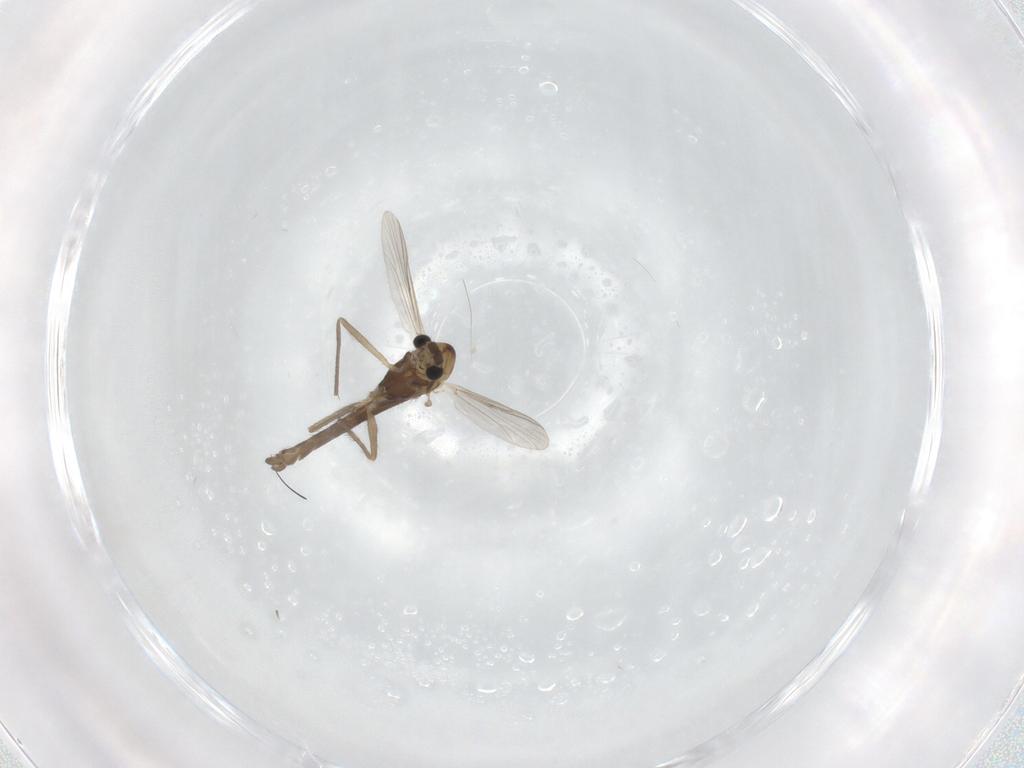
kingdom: Animalia
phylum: Arthropoda
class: Insecta
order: Diptera
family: Chironomidae
